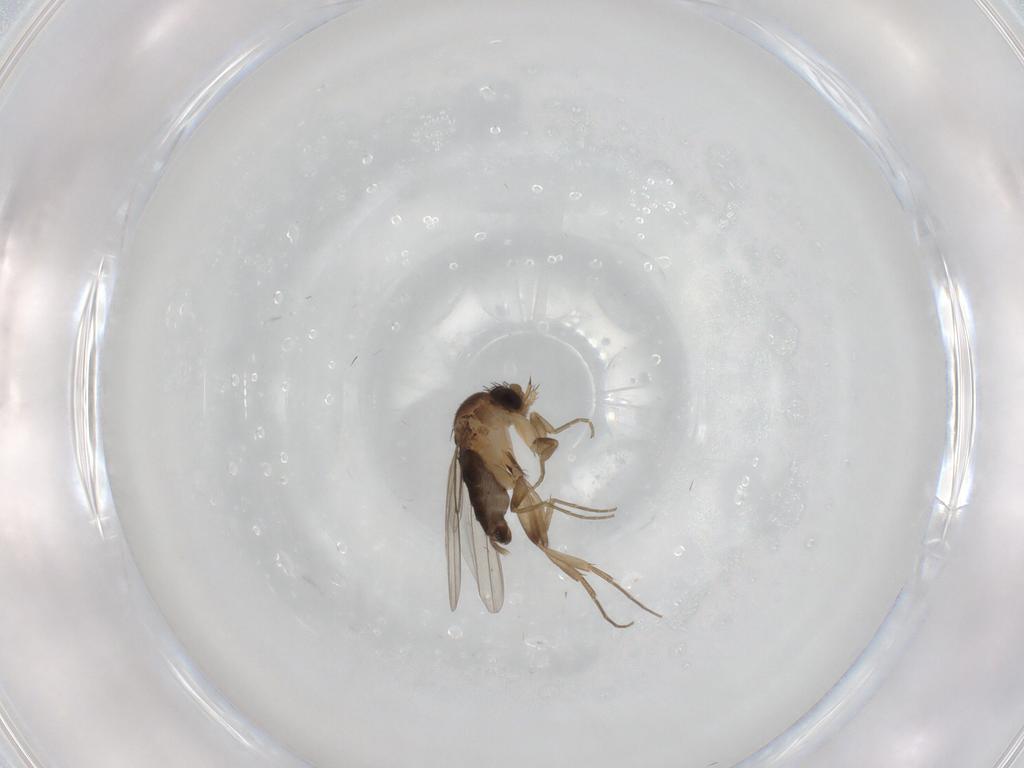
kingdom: Animalia
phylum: Arthropoda
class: Insecta
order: Diptera
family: Phoridae
